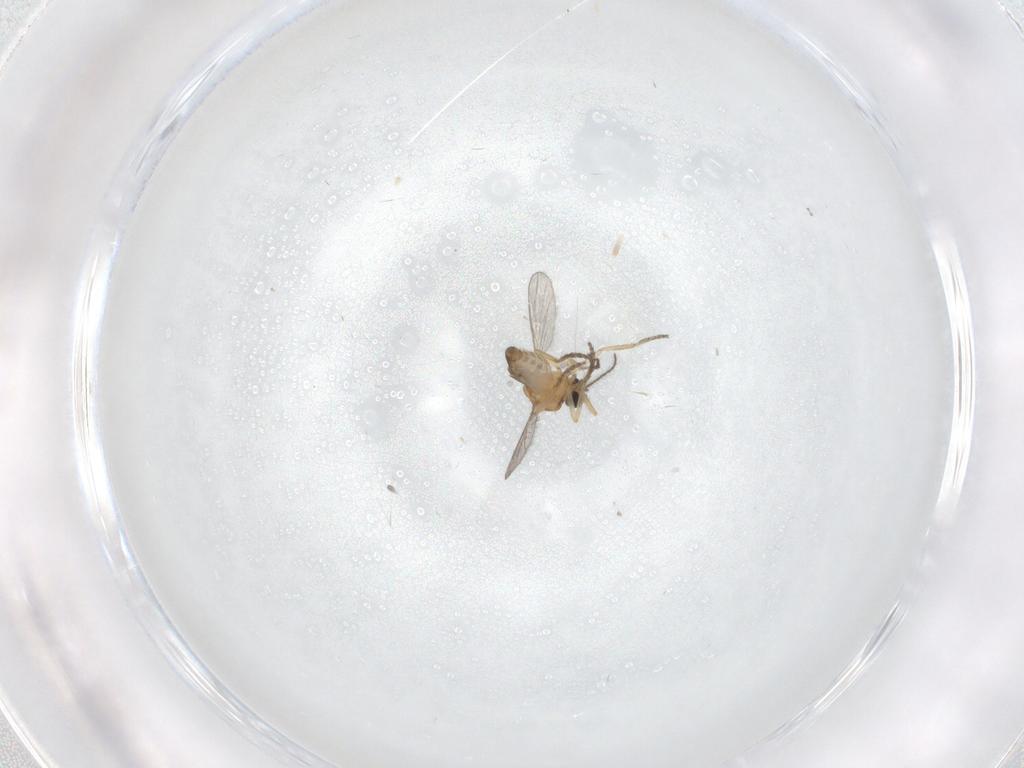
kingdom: Animalia
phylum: Arthropoda
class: Insecta
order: Diptera
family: Cecidomyiidae
